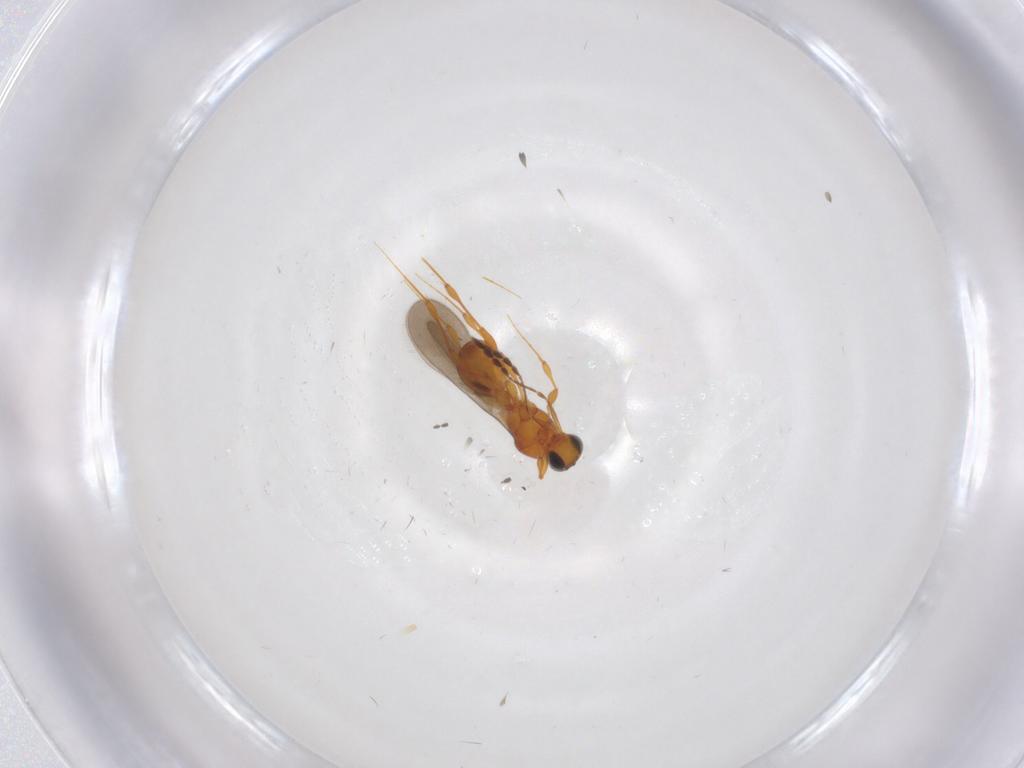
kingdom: Animalia
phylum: Arthropoda
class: Insecta
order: Hymenoptera
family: Platygastridae
